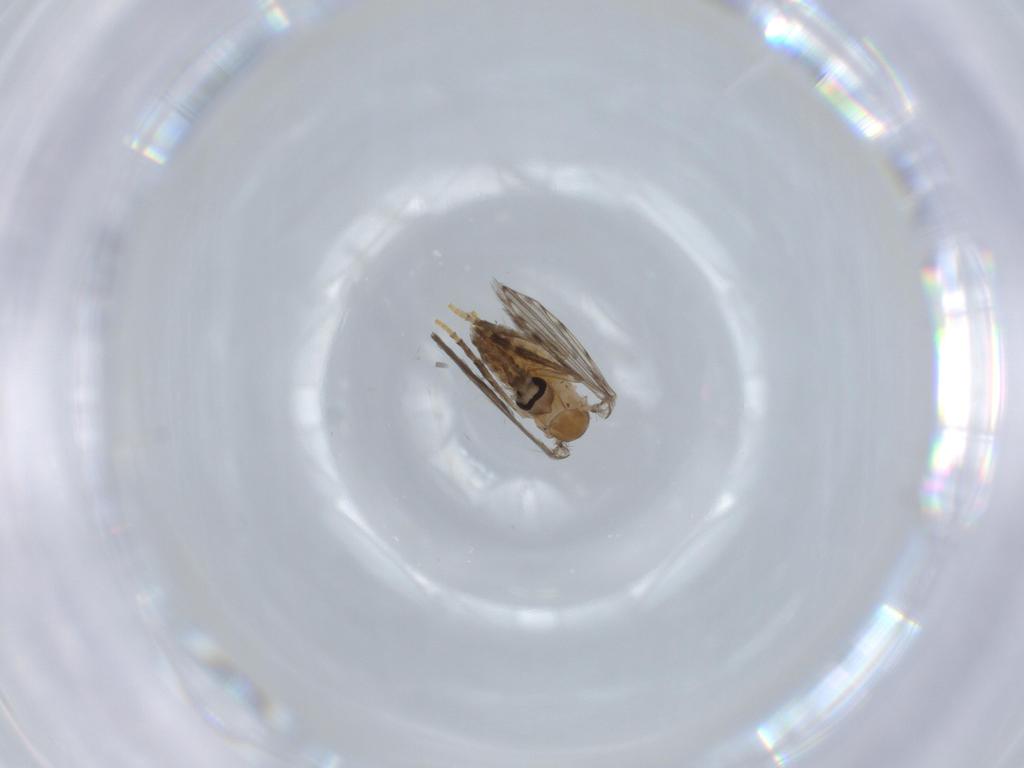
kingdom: Animalia
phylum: Arthropoda
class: Insecta
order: Diptera
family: Psychodidae
